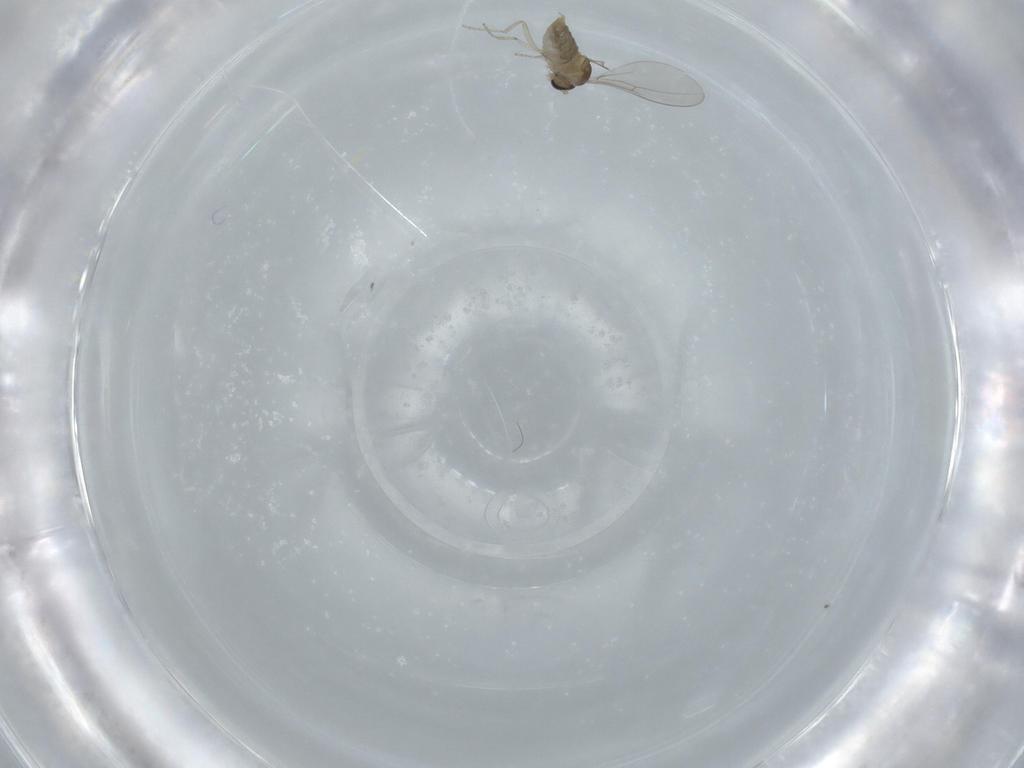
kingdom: Animalia
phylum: Arthropoda
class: Insecta
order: Diptera
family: Cecidomyiidae
